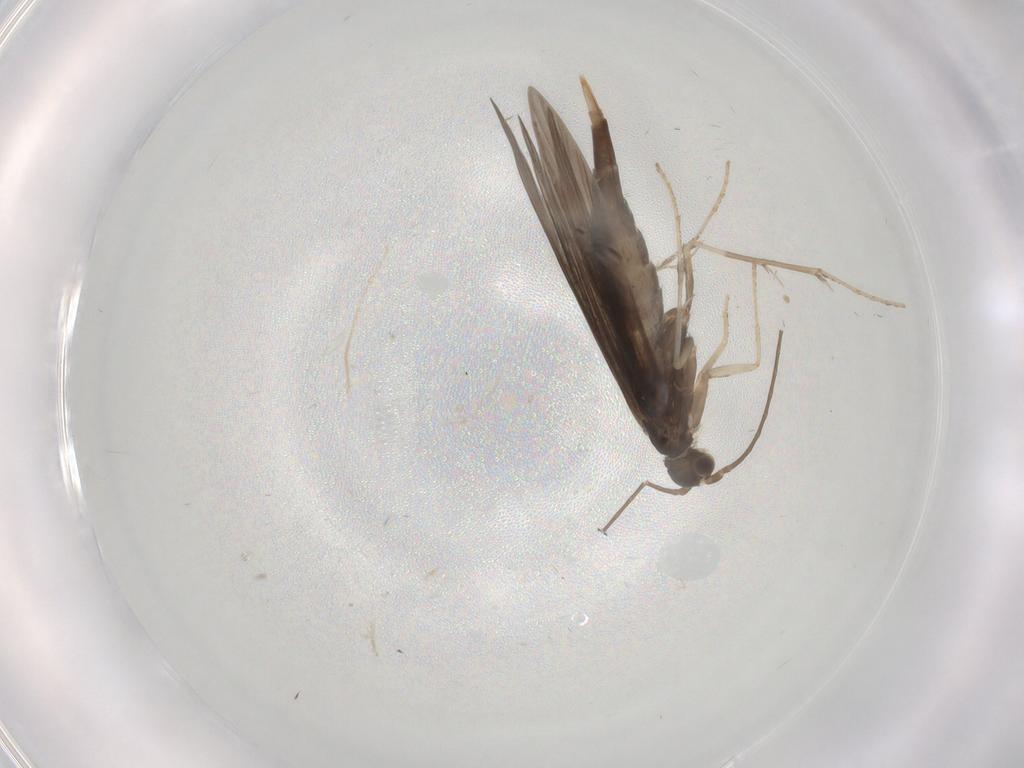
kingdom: Animalia
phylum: Arthropoda
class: Insecta
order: Trichoptera
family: Xiphocentronidae
